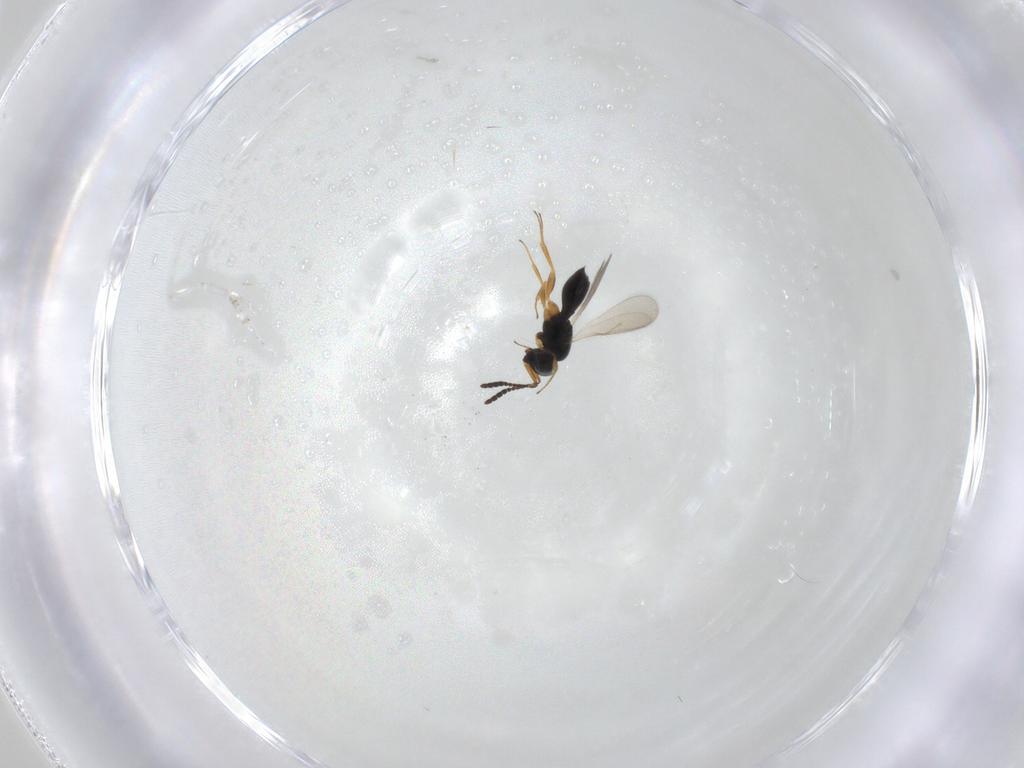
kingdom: Animalia
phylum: Arthropoda
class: Insecta
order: Hymenoptera
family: Scelionidae
